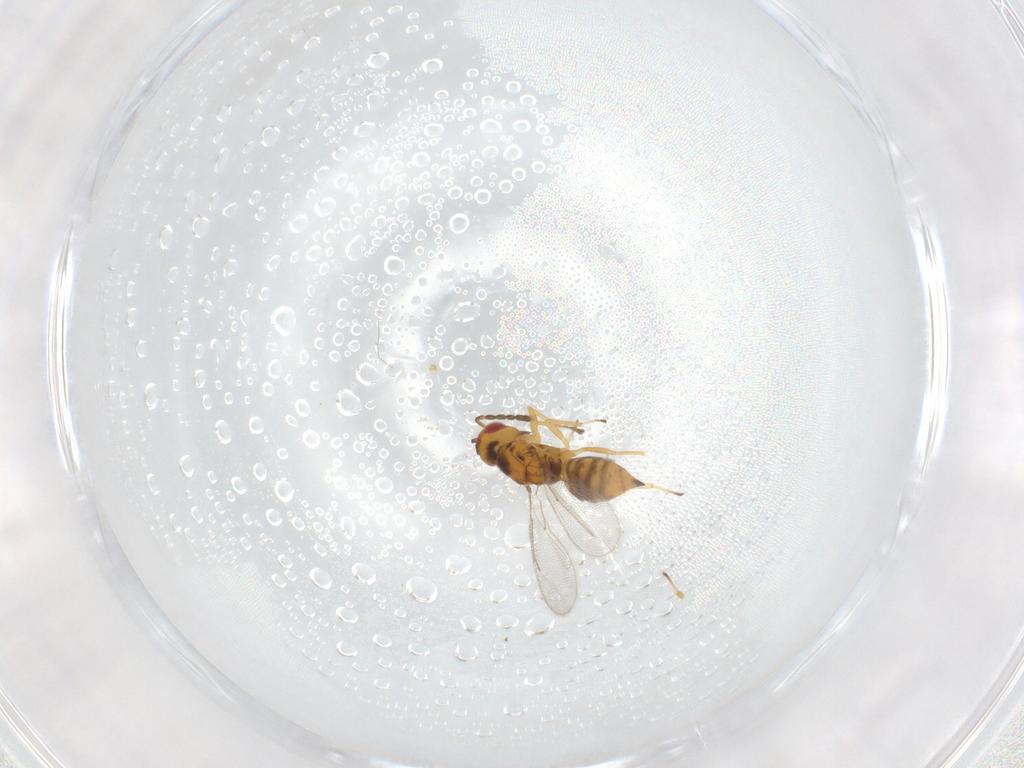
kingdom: Animalia
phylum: Arthropoda
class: Insecta
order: Hymenoptera
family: Eulophidae
